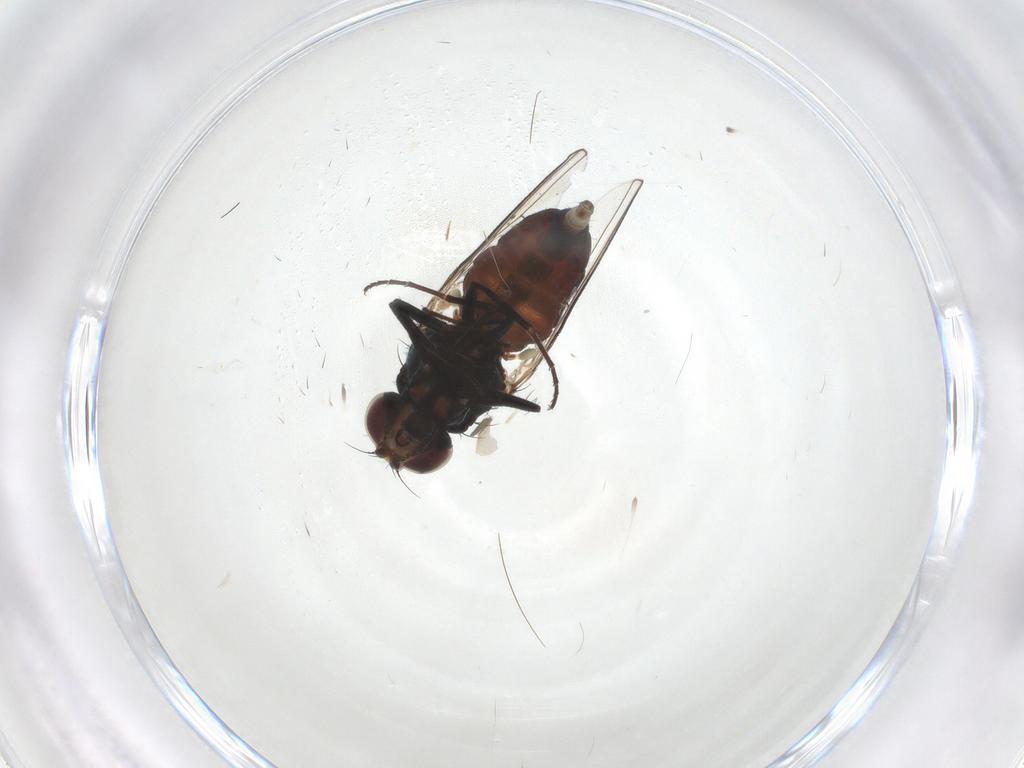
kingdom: Animalia
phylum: Arthropoda
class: Insecta
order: Diptera
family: Carnidae
